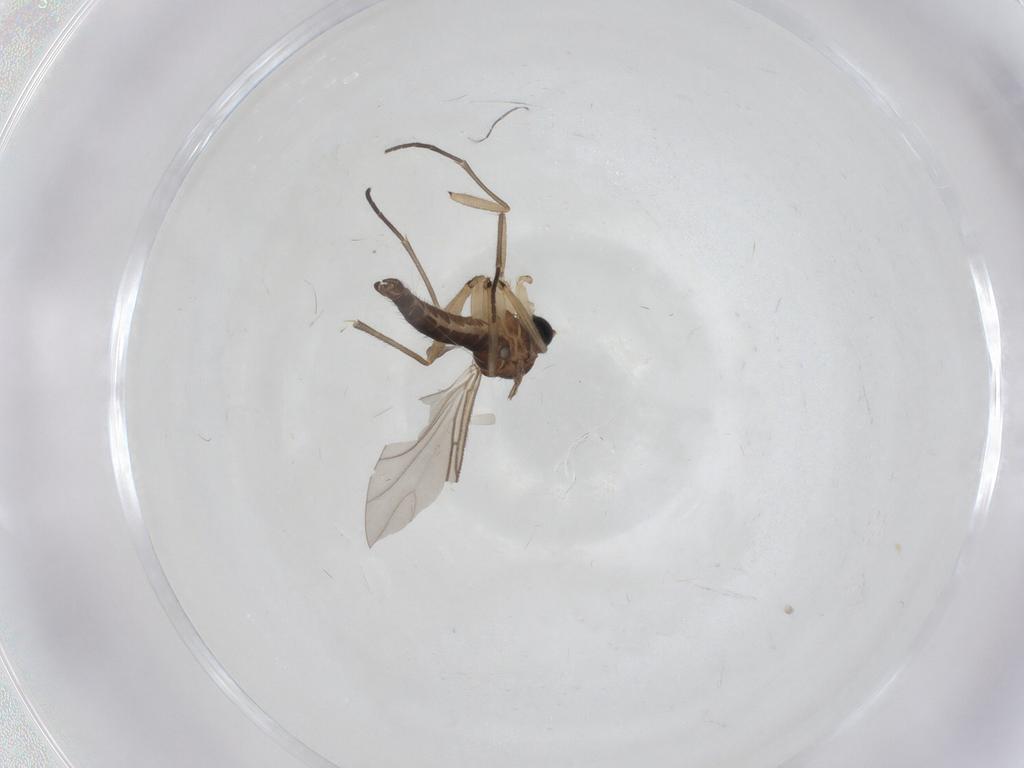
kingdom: Animalia
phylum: Arthropoda
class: Insecta
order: Diptera
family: Sciaridae
